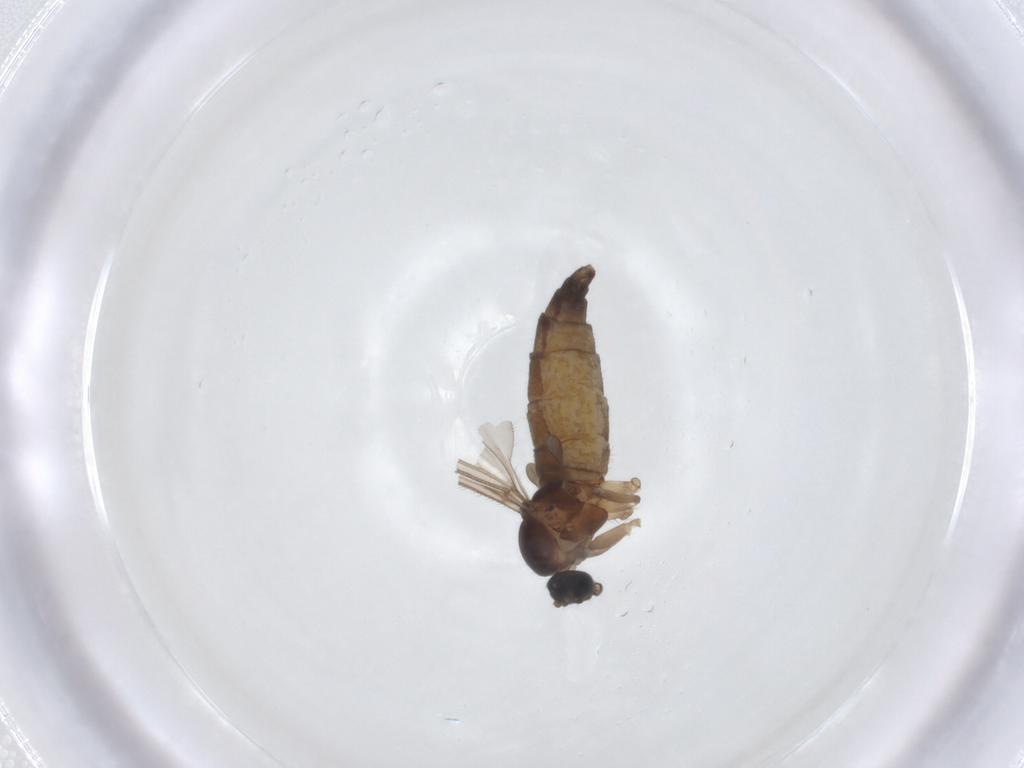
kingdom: Animalia
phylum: Arthropoda
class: Insecta
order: Diptera
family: Sciaridae
